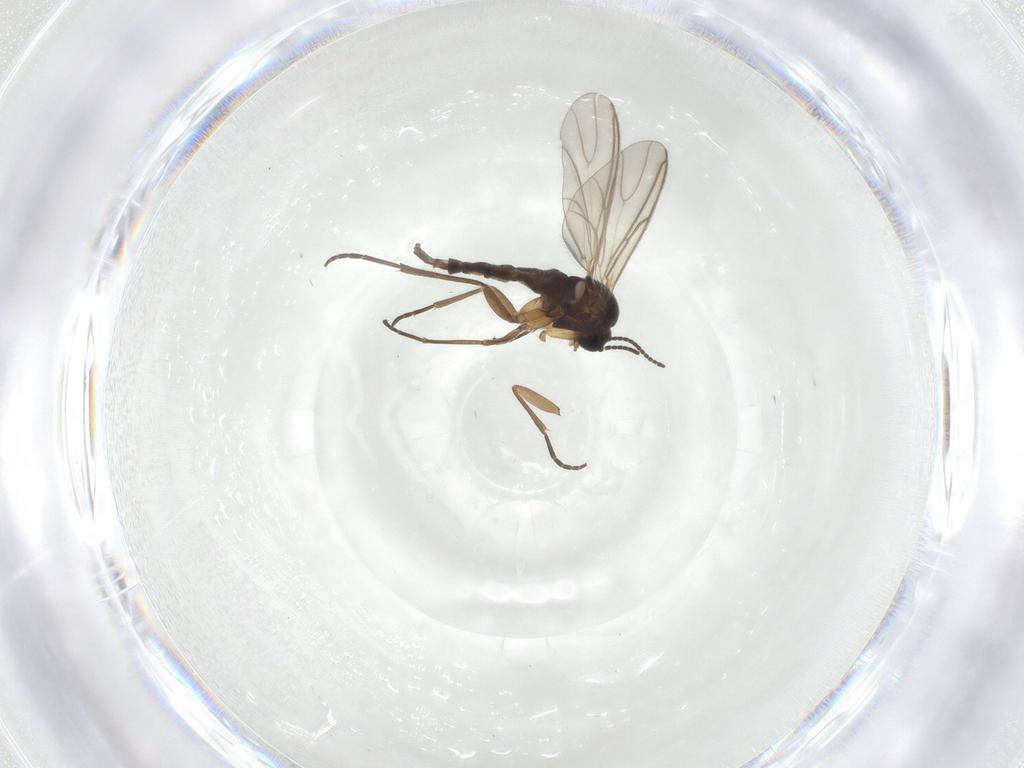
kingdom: Animalia
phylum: Arthropoda
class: Insecta
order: Diptera
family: Sciaridae
